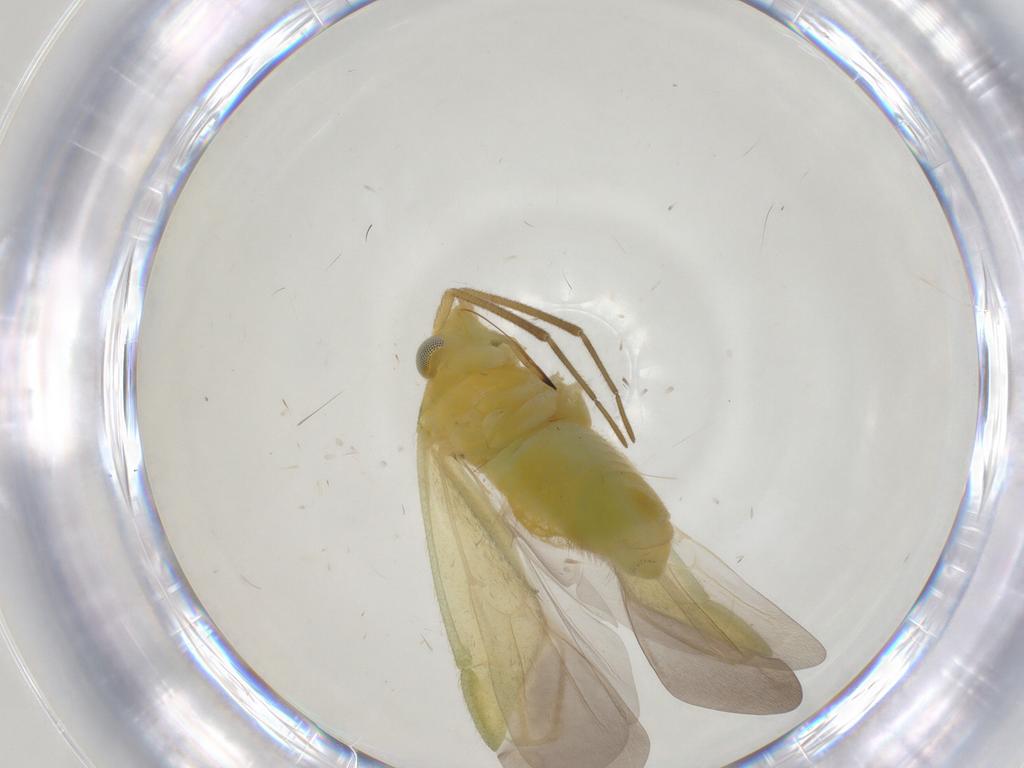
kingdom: Animalia
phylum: Arthropoda
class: Insecta
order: Hemiptera
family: Miridae
